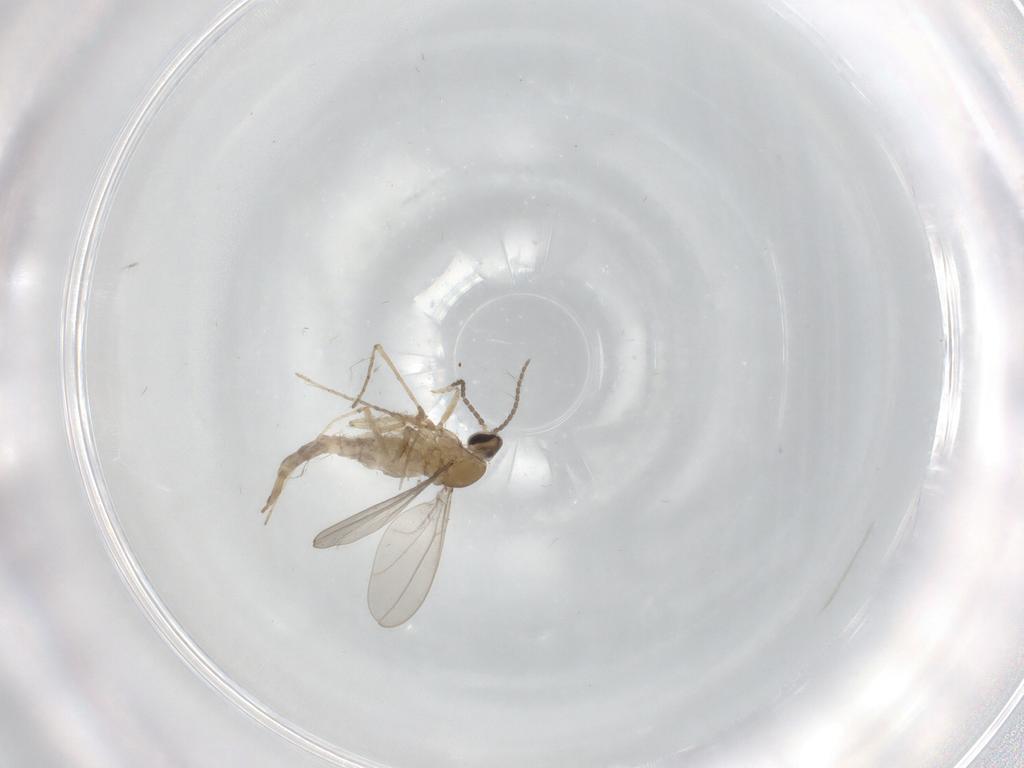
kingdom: Animalia
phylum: Arthropoda
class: Insecta
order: Diptera
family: Cecidomyiidae
